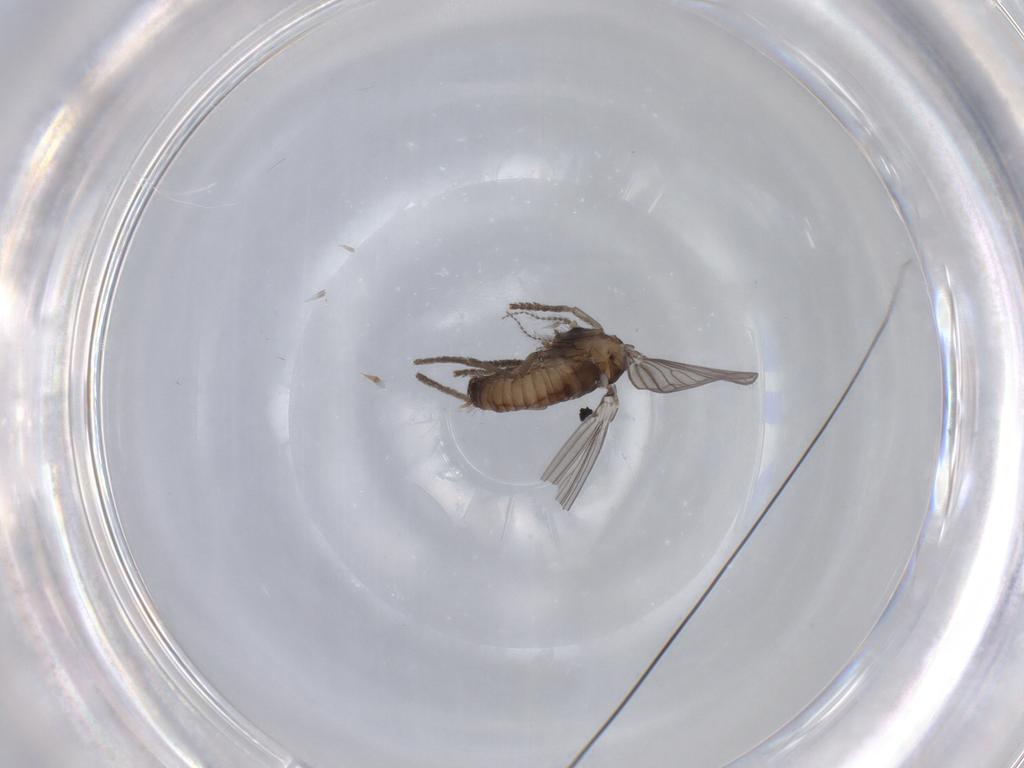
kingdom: Animalia
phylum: Arthropoda
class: Insecta
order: Diptera
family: Psychodidae
